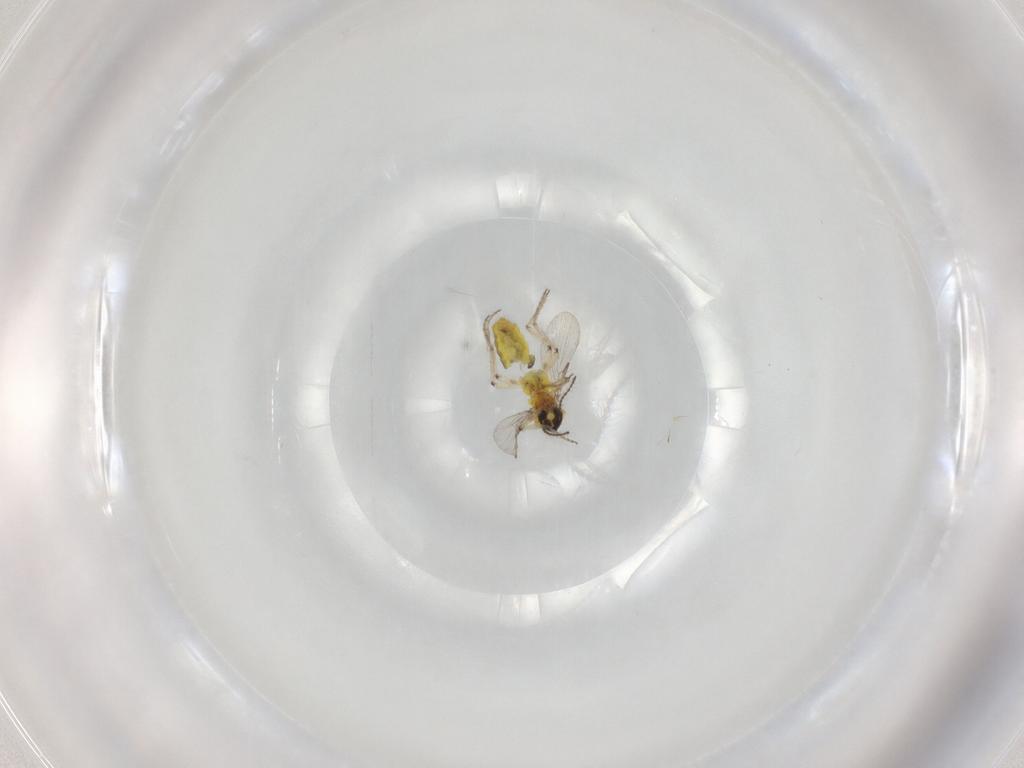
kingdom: Animalia
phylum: Arthropoda
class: Insecta
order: Diptera
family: Ceratopogonidae
